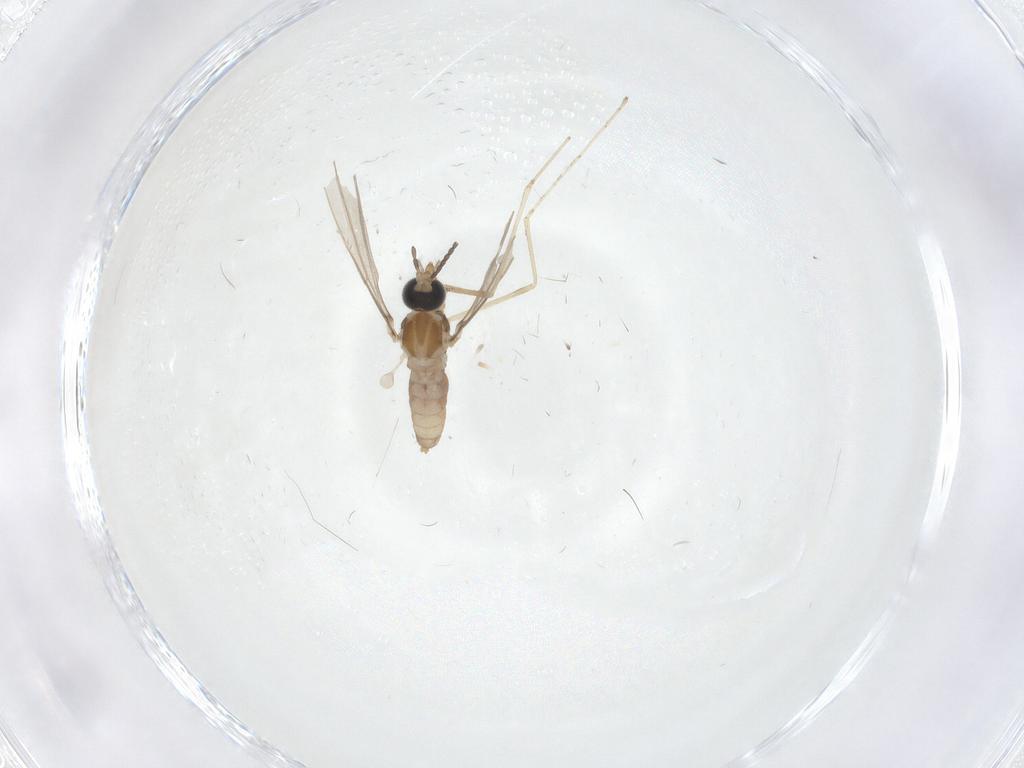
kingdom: Animalia
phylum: Arthropoda
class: Insecta
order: Diptera
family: Cecidomyiidae
